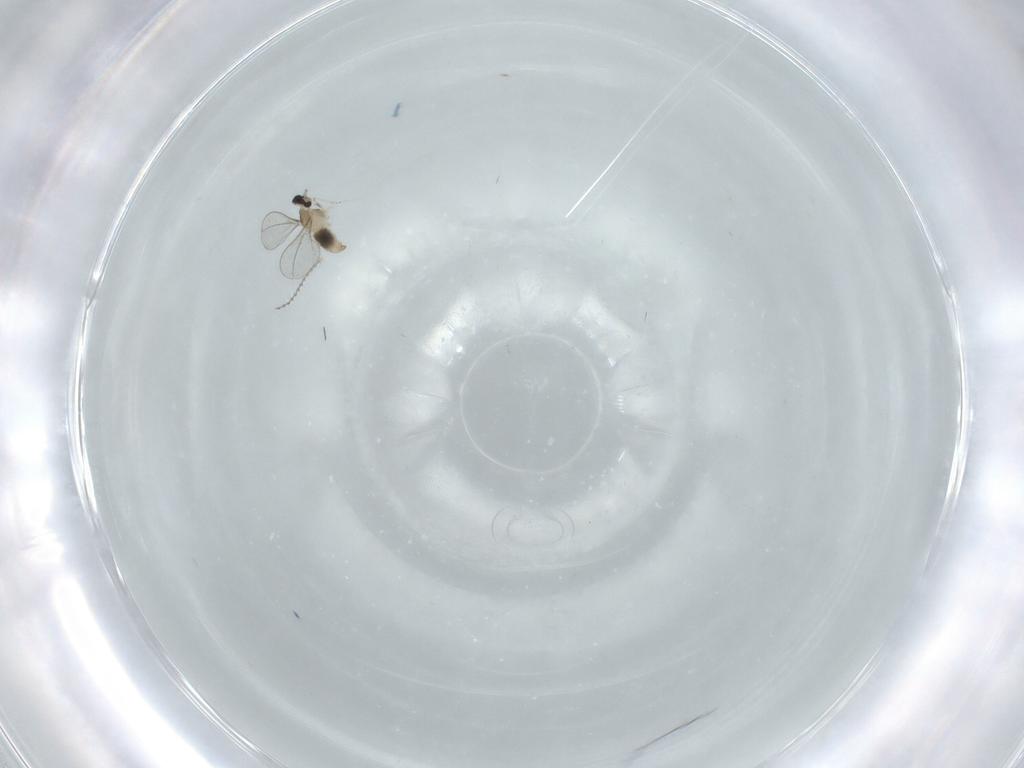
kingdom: Animalia
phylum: Arthropoda
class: Insecta
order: Diptera
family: Cecidomyiidae
